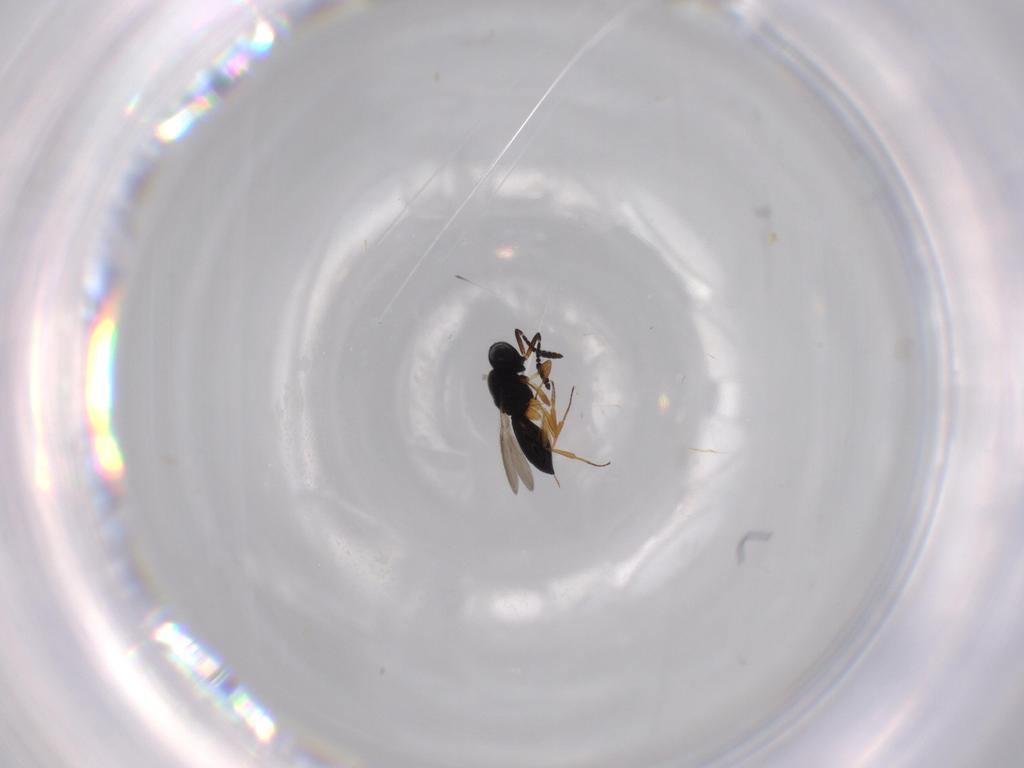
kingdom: Animalia
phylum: Arthropoda
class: Insecta
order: Hymenoptera
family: Scelionidae
